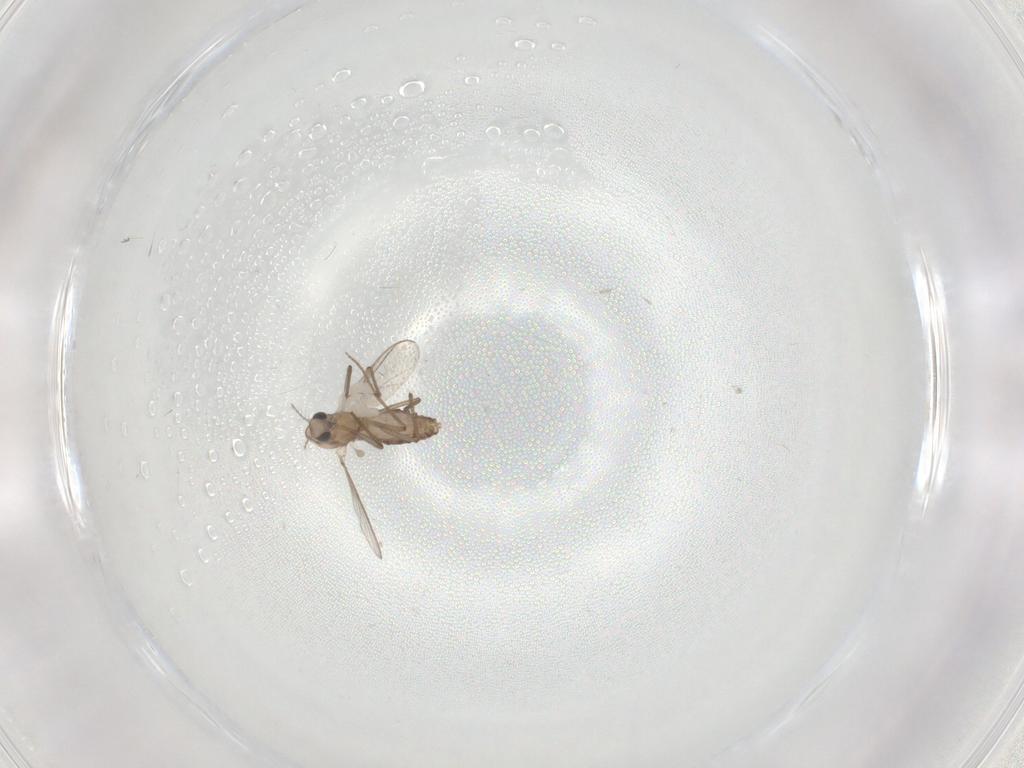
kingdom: Animalia
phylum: Arthropoda
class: Insecta
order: Diptera
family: Chironomidae
